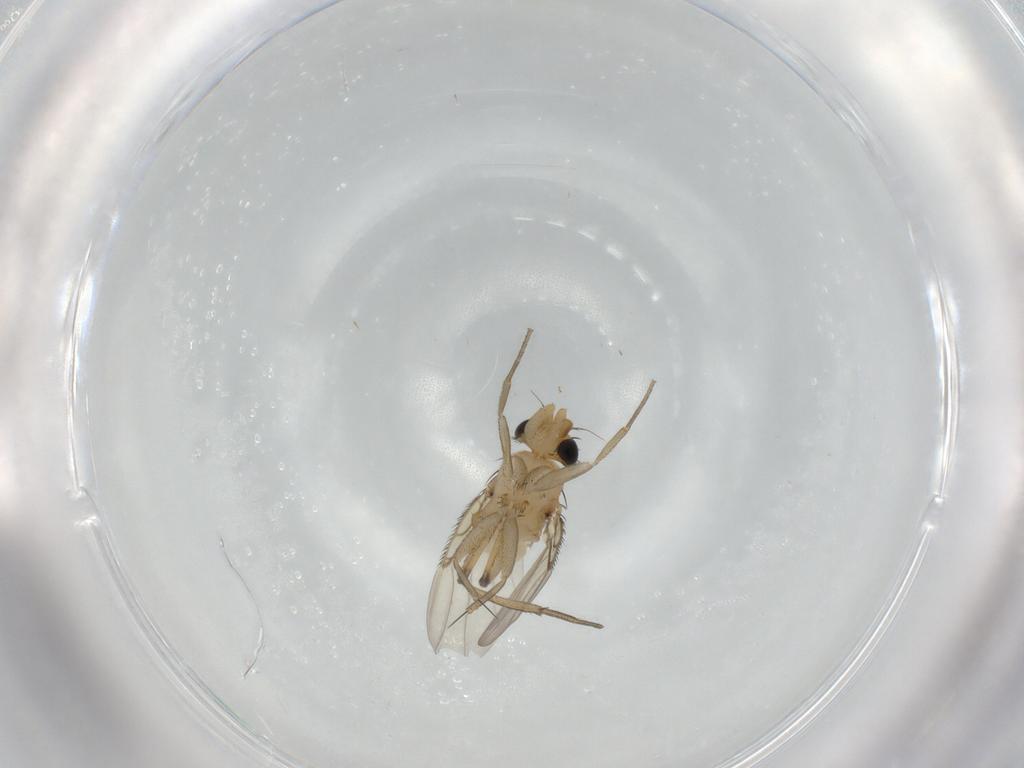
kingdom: Animalia
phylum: Arthropoda
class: Insecta
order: Diptera
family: Phoridae
